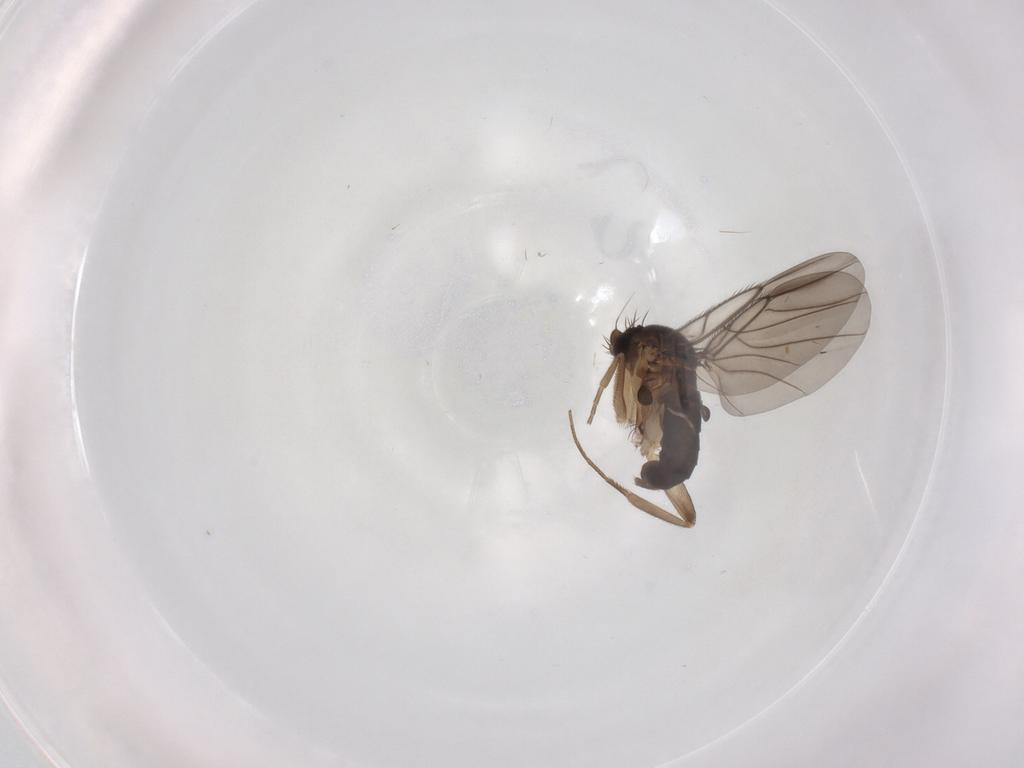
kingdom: Animalia
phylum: Arthropoda
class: Insecta
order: Diptera
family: Phoridae
